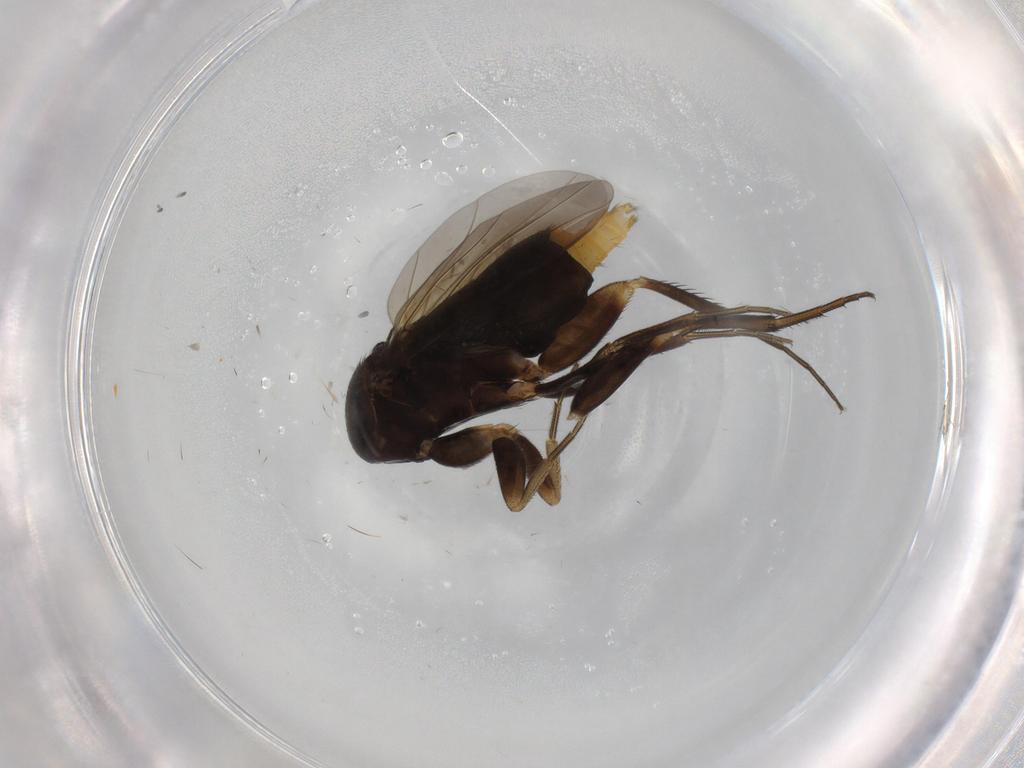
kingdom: Animalia
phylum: Arthropoda
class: Insecta
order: Diptera
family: Phoridae
